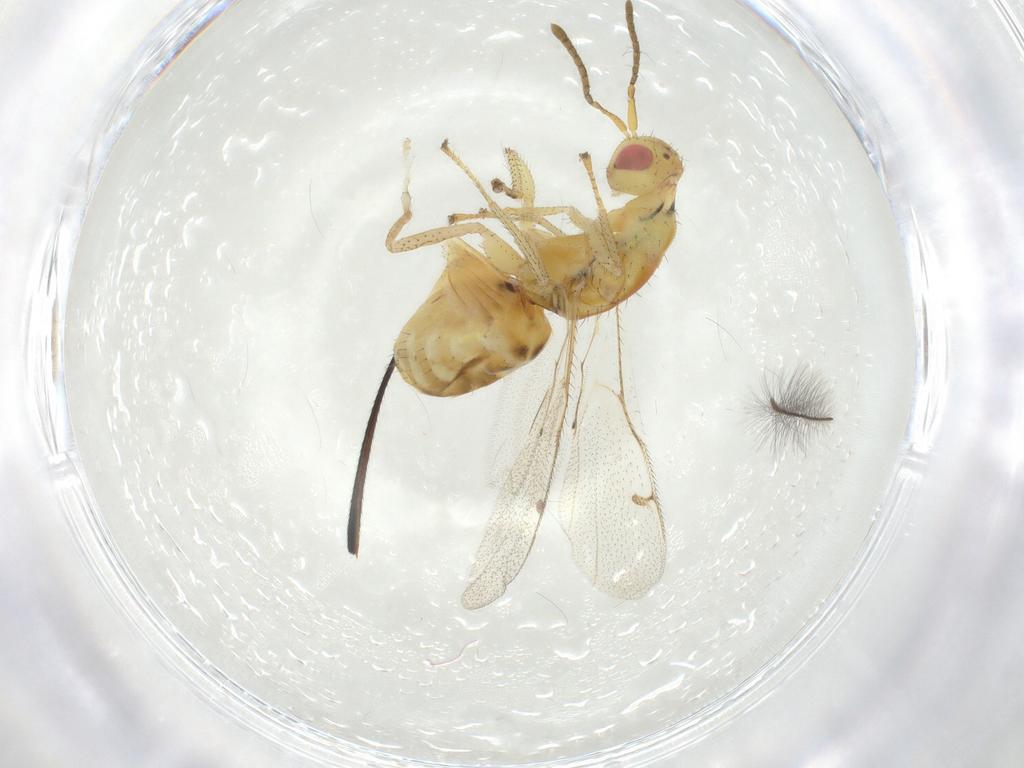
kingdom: Animalia
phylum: Arthropoda
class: Insecta
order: Hymenoptera
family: Megastigmidae
